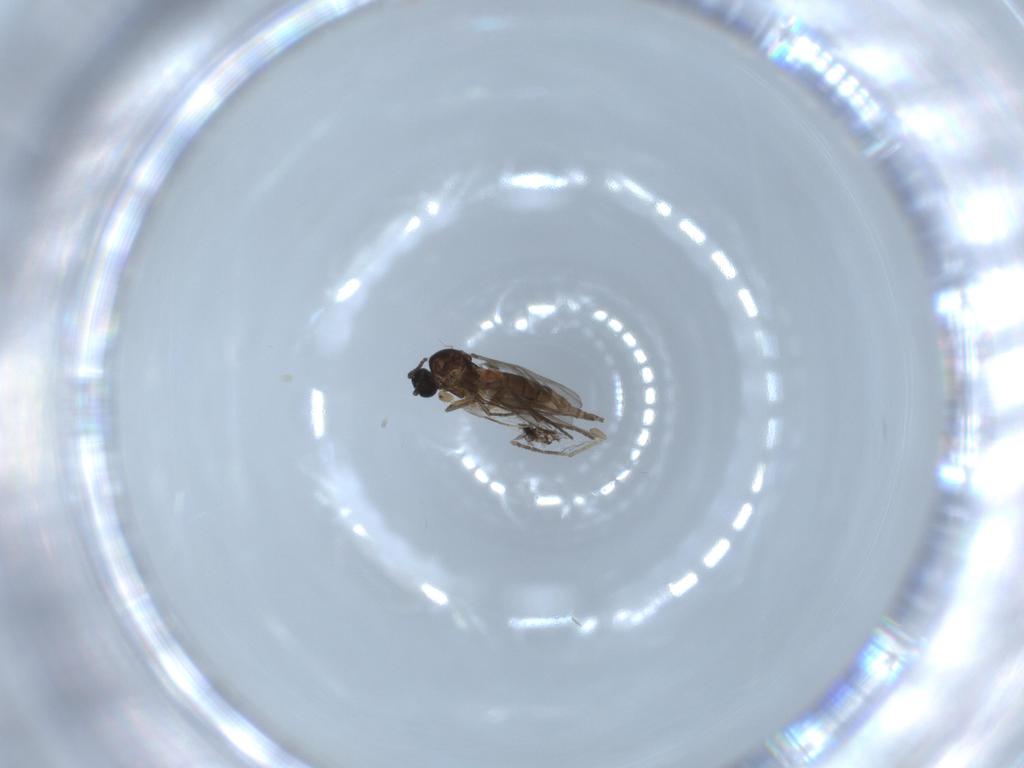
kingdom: Animalia
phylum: Arthropoda
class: Insecta
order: Diptera
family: Sciaridae
